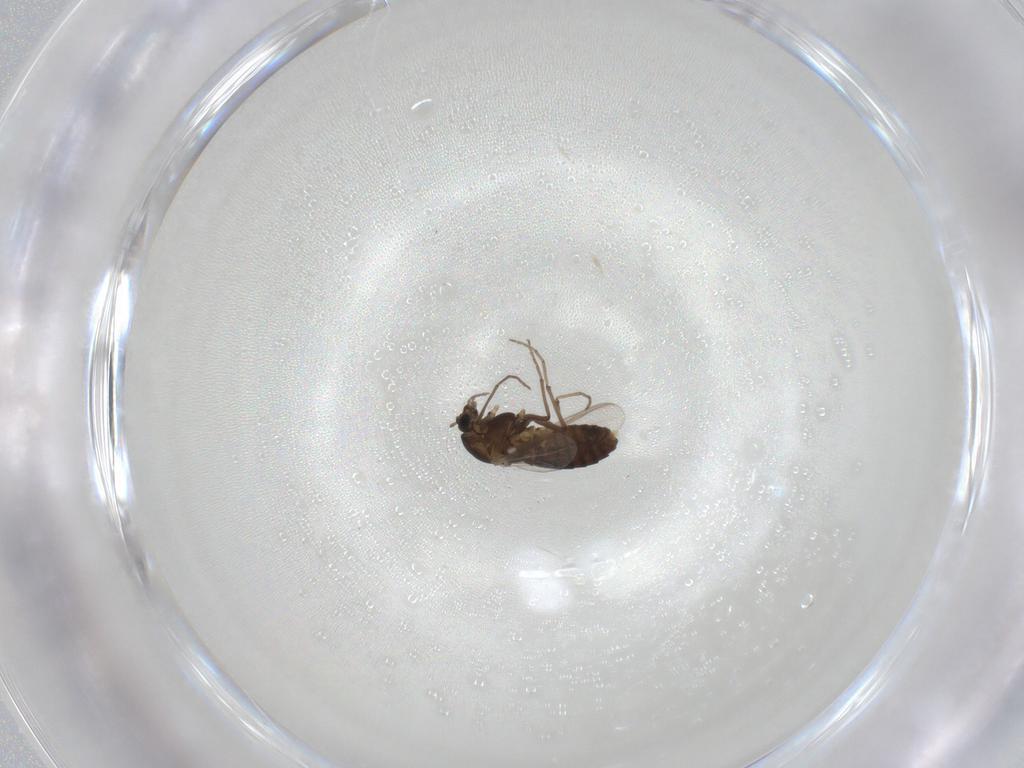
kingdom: Animalia
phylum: Arthropoda
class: Insecta
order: Diptera
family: Chironomidae
